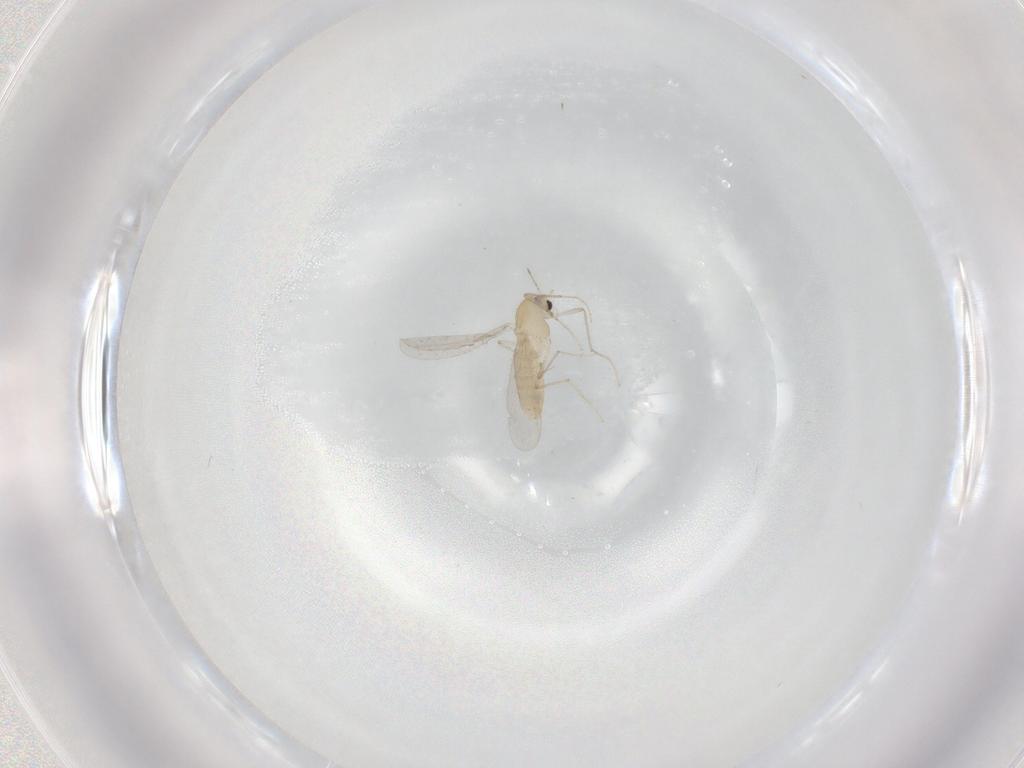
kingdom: Animalia
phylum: Arthropoda
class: Insecta
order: Diptera
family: Chironomidae
